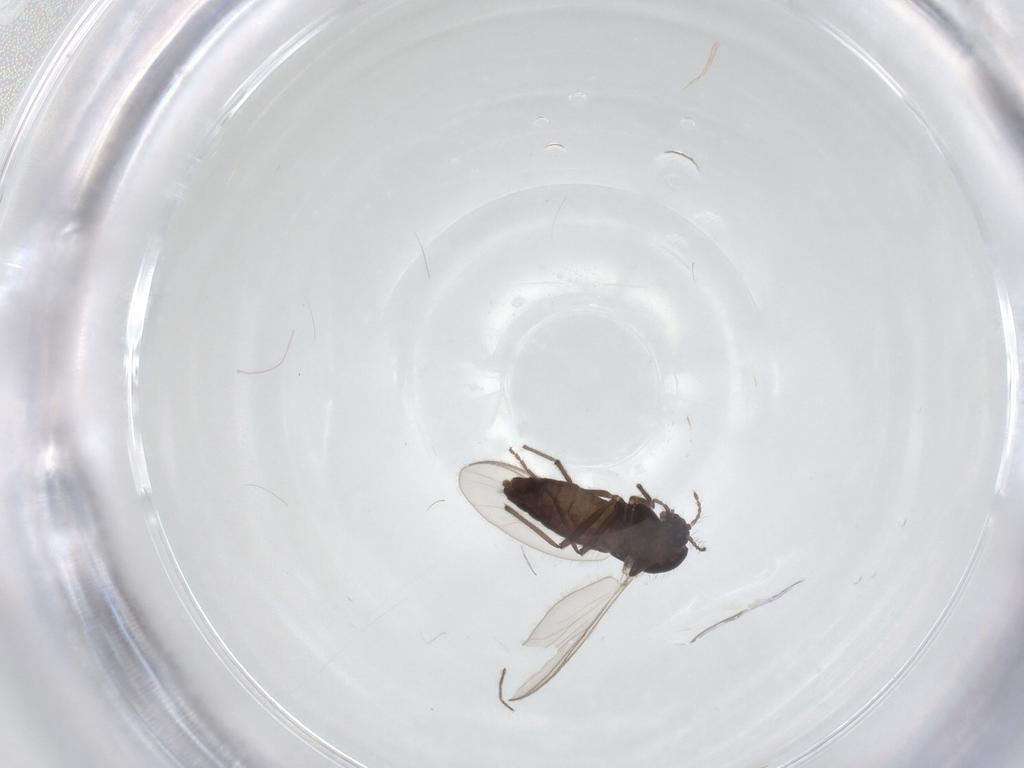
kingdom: Animalia
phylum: Arthropoda
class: Insecta
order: Diptera
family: Chironomidae
